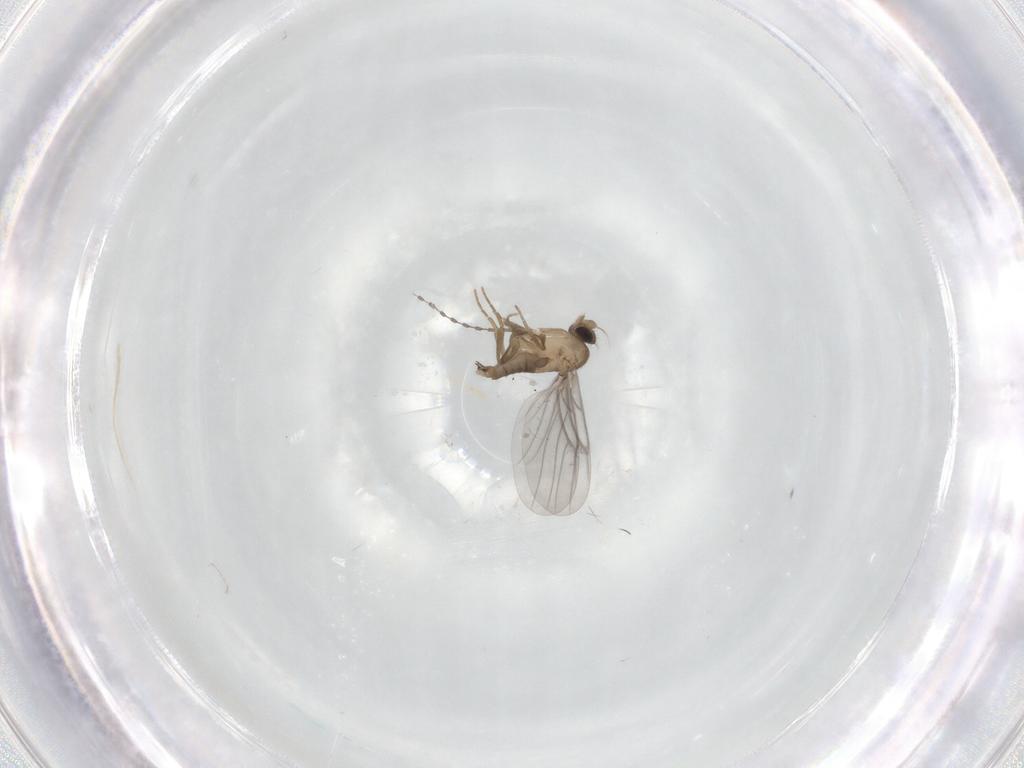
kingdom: Animalia
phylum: Arthropoda
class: Insecta
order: Diptera
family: Cecidomyiidae
